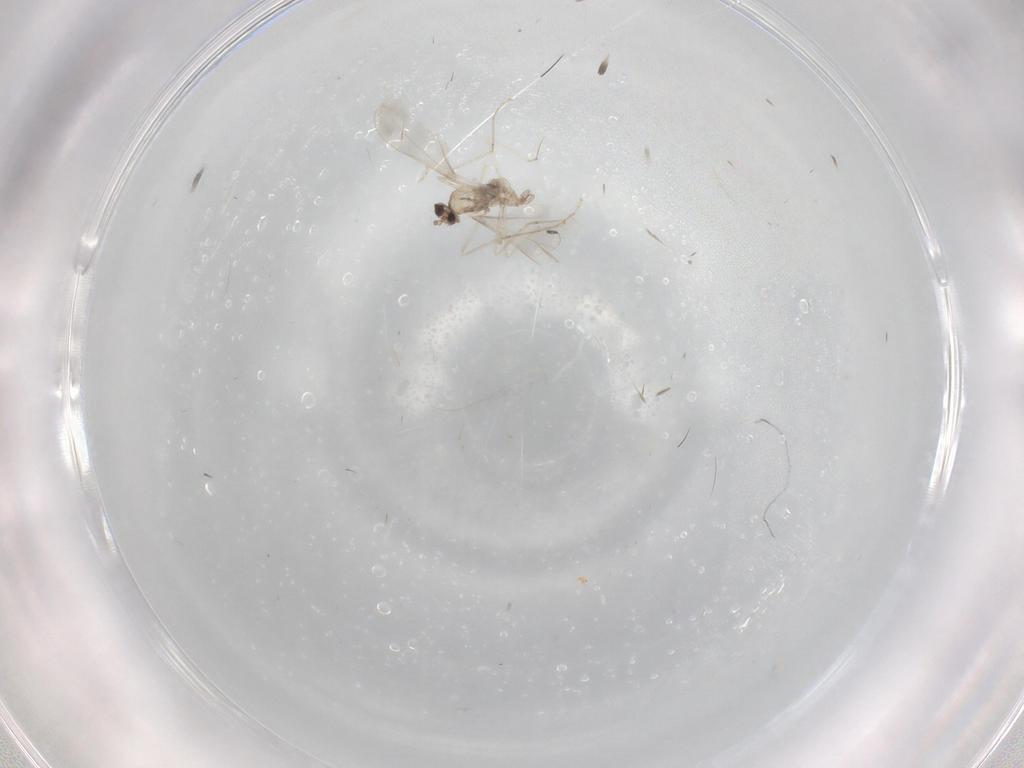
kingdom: Animalia
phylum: Arthropoda
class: Insecta
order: Diptera
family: Cecidomyiidae
